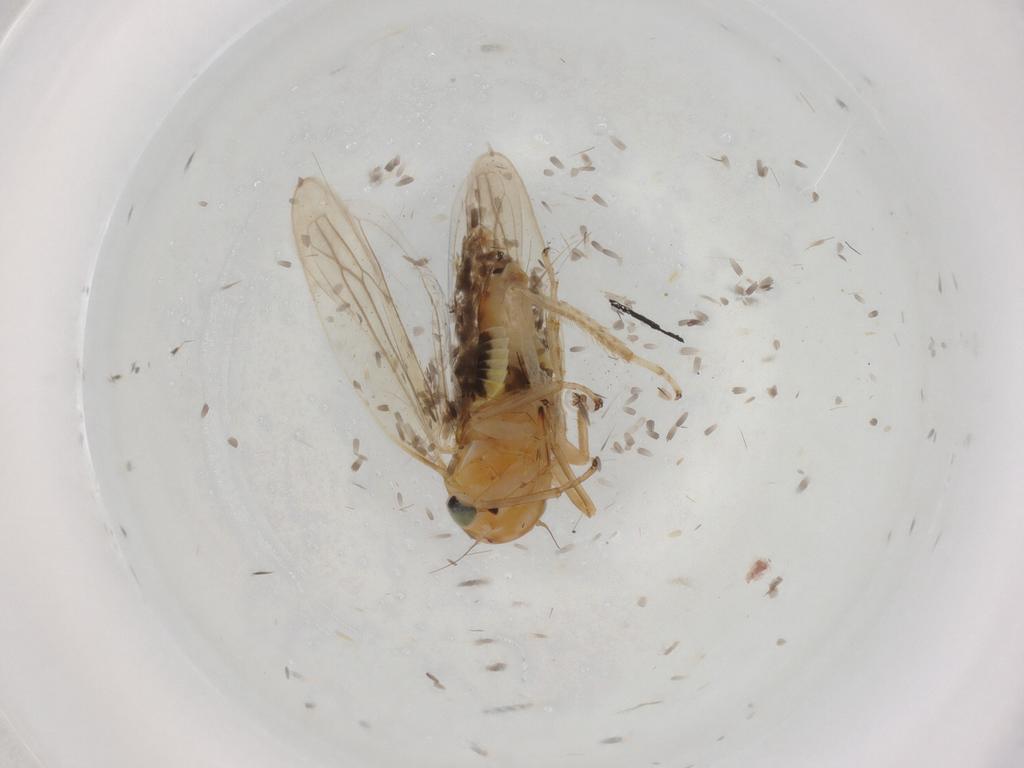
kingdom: Animalia
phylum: Arthropoda
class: Insecta
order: Hemiptera
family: Cicadellidae
